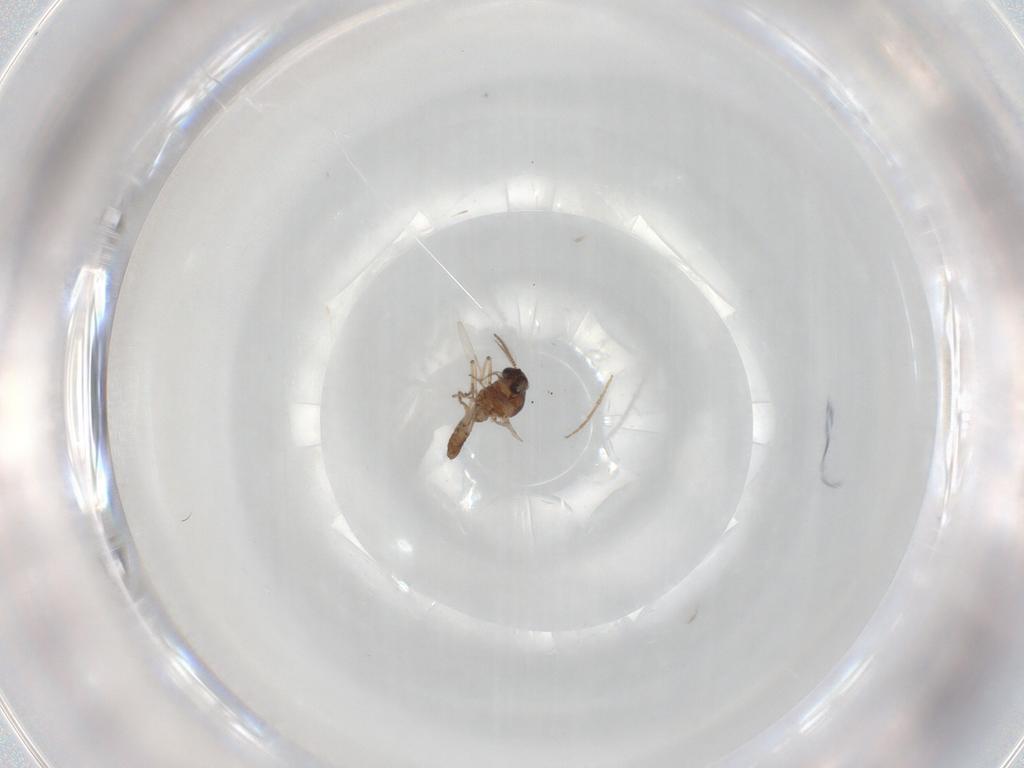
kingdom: Animalia
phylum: Arthropoda
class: Insecta
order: Diptera
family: Ceratopogonidae
